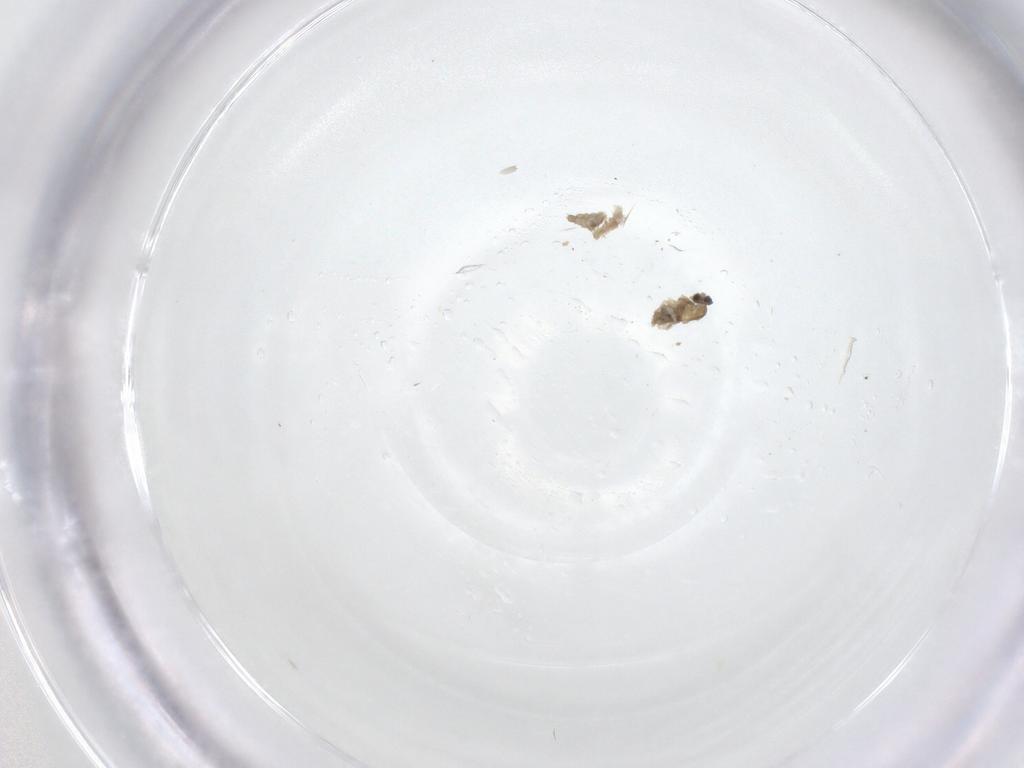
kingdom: Animalia
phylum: Arthropoda
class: Insecta
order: Diptera
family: Cecidomyiidae
